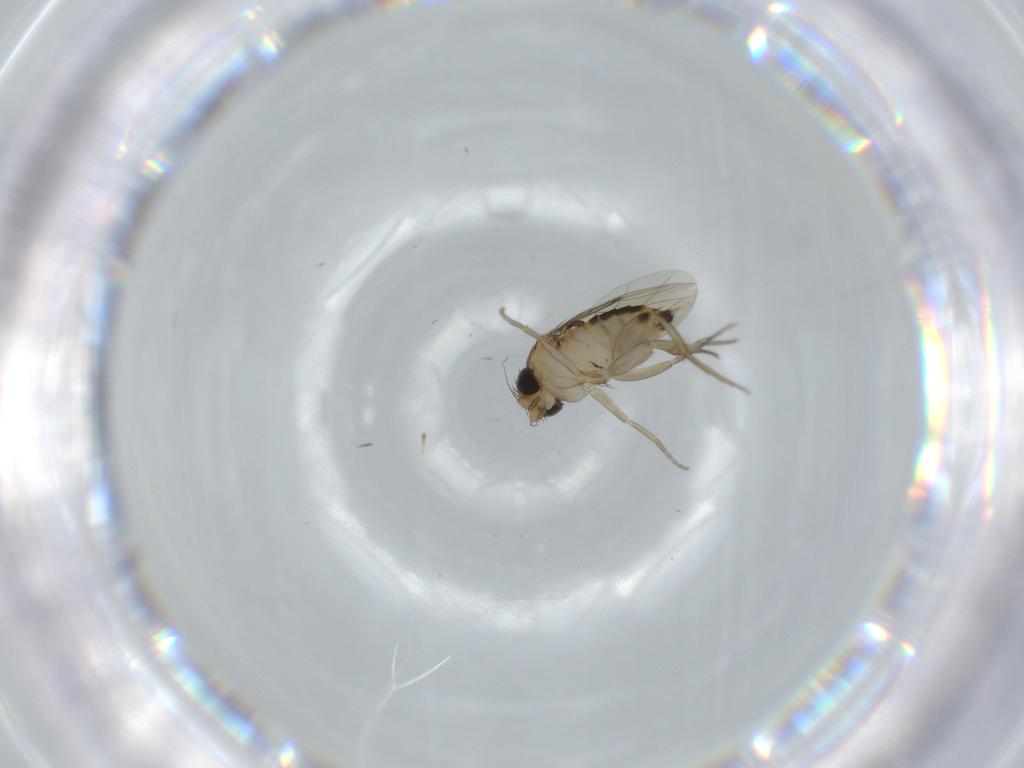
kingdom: Animalia
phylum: Arthropoda
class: Insecta
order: Diptera
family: Phoridae
